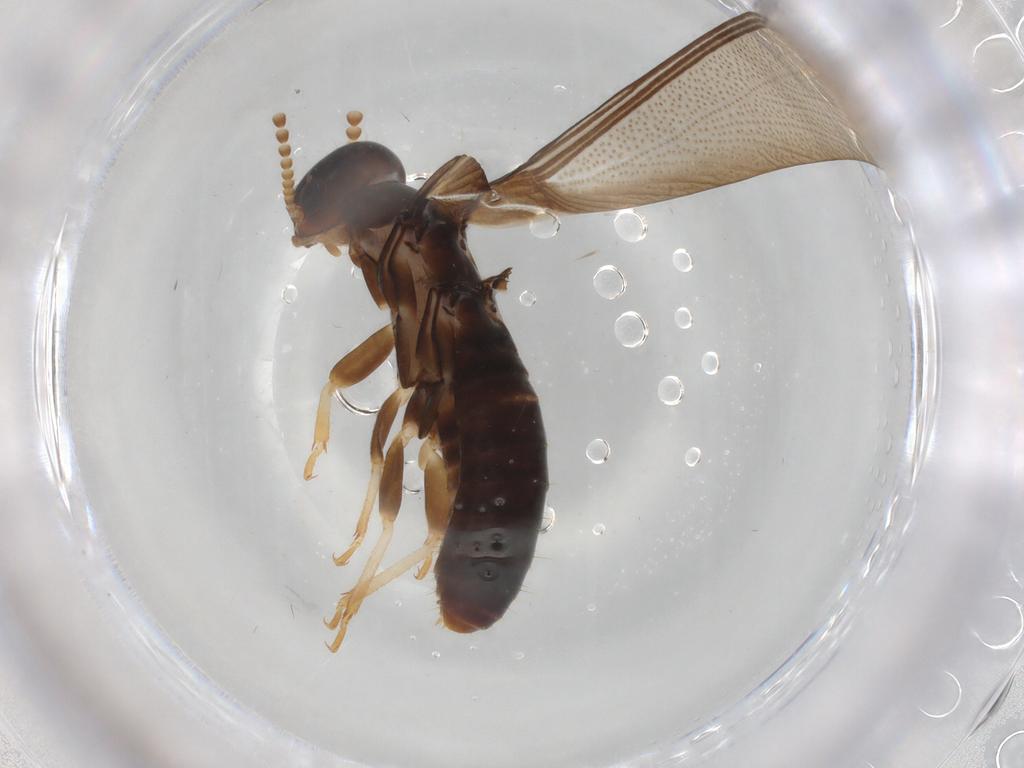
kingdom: Animalia
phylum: Arthropoda
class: Insecta
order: Blattodea
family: Kalotermitidae
